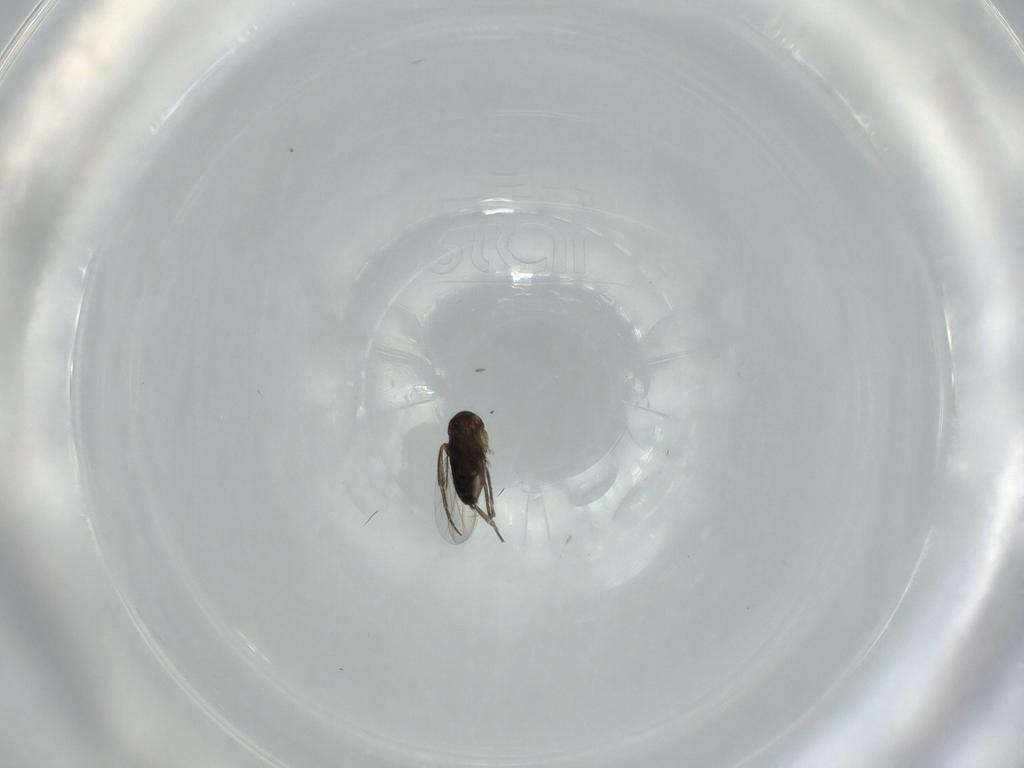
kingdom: Animalia
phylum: Arthropoda
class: Insecta
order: Diptera
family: Phoridae
